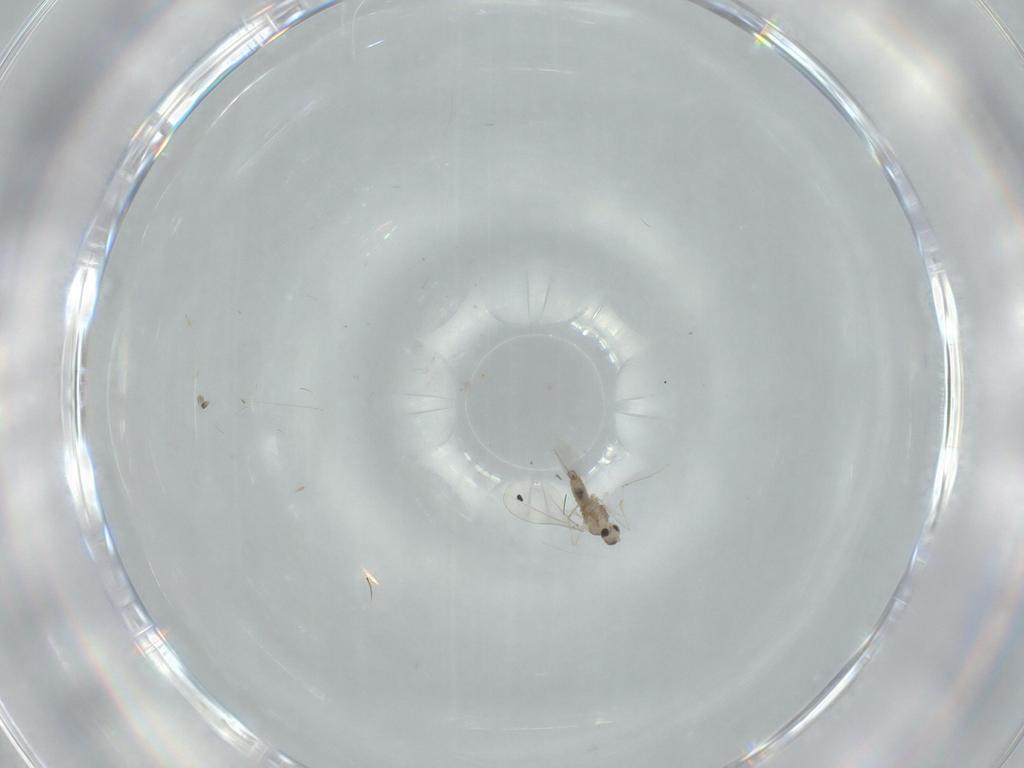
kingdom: Animalia
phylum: Arthropoda
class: Insecta
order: Diptera
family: Cecidomyiidae
